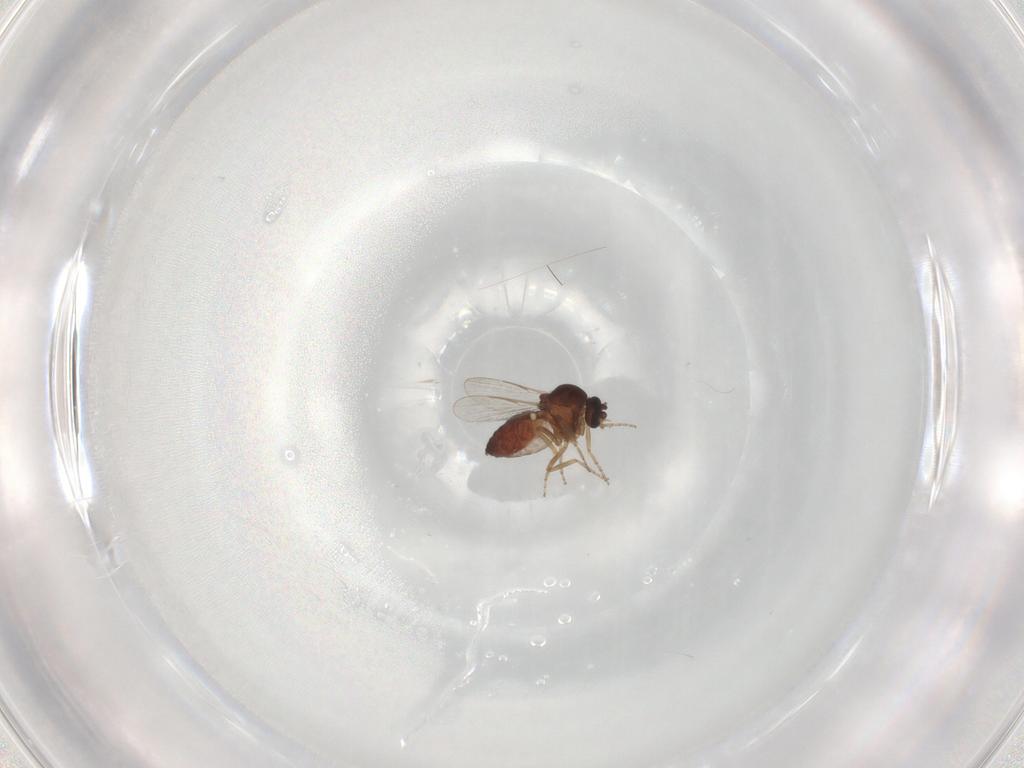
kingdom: Animalia
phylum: Arthropoda
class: Insecta
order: Diptera
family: Ceratopogonidae
